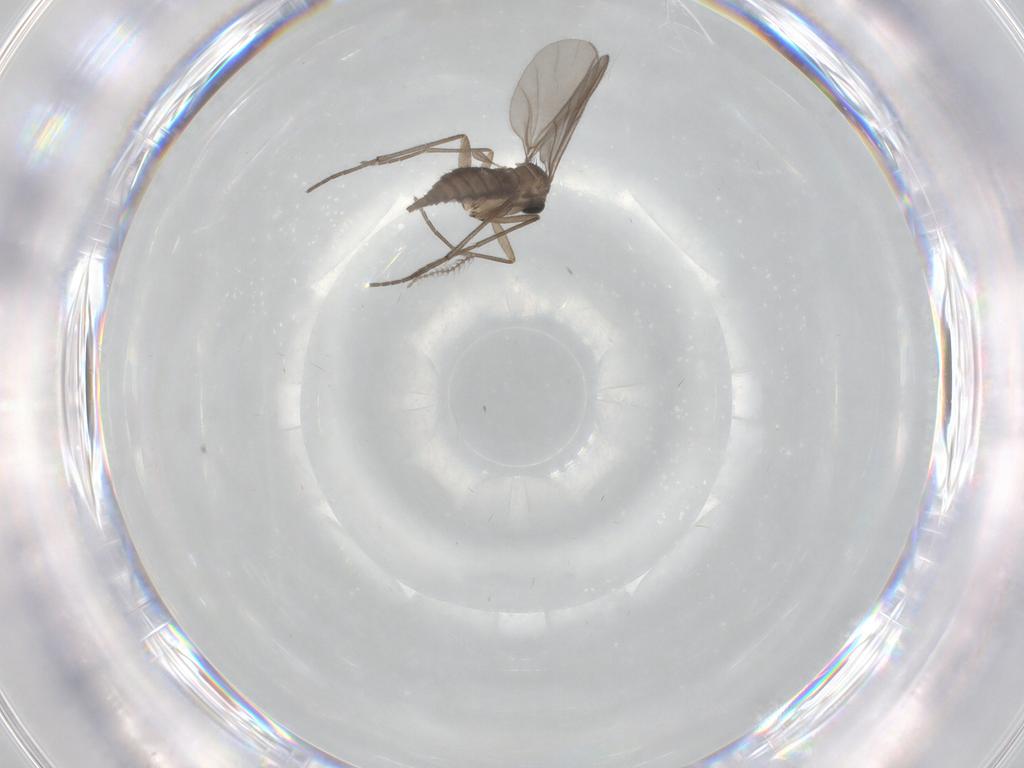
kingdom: Animalia
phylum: Arthropoda
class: Insecta
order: Diptera
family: Sciaridae
